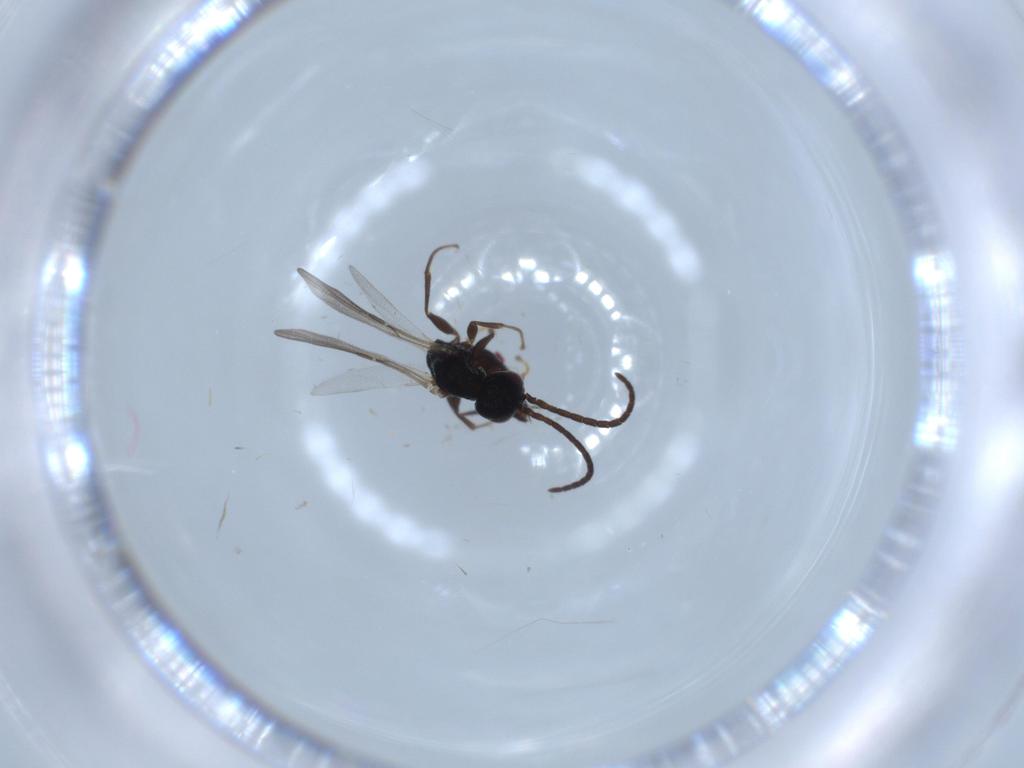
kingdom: Animalia
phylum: Arthropoda
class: Insecta
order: Hymenoptera
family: Bethylidae
